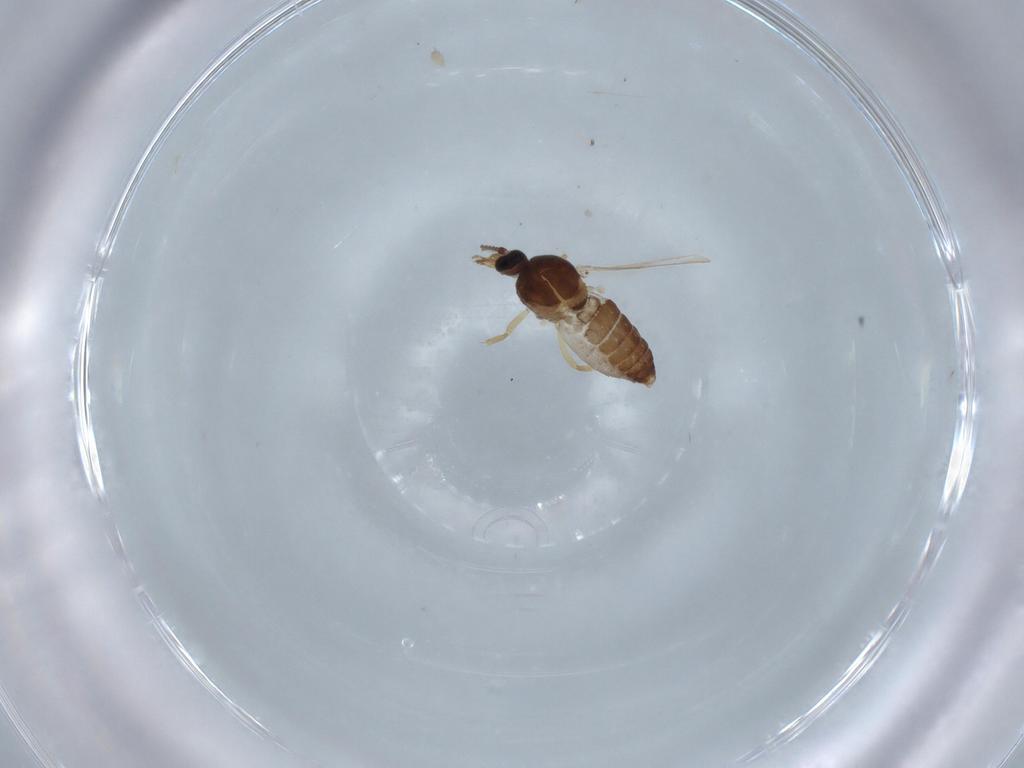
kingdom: Animalia
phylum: Arthropoda
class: Insecta
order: Diptera
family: Ceratopogonidae
